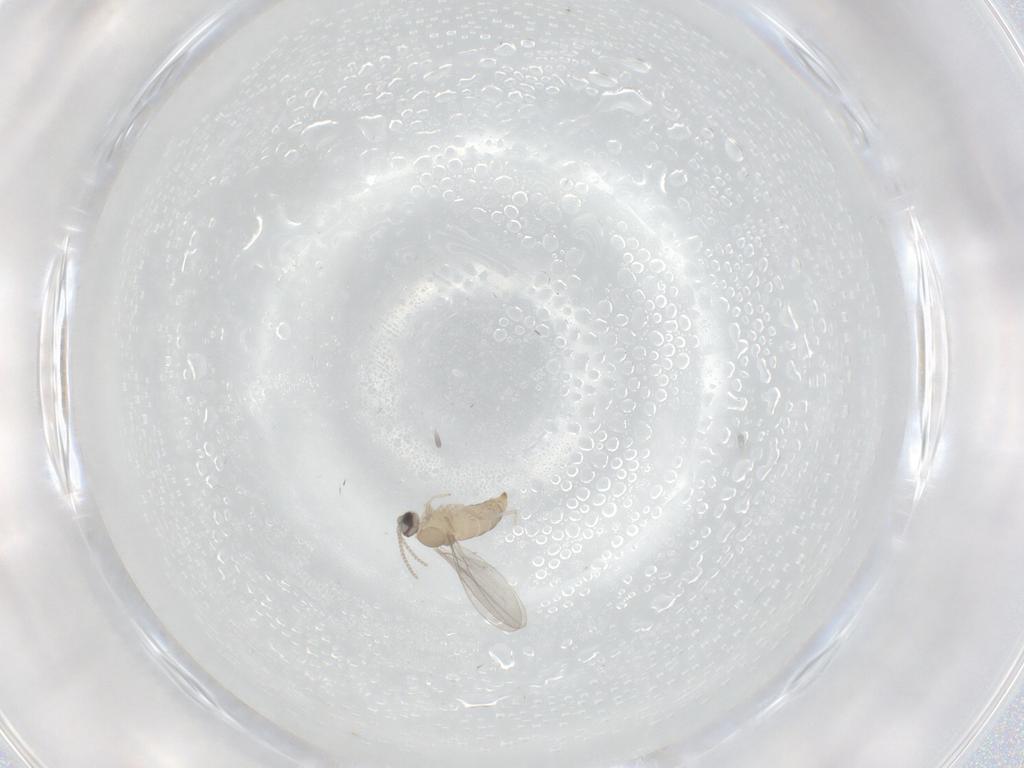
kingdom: Animalia
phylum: Arthropoda
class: Insecta
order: Diptera
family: Cecidomyiidae
